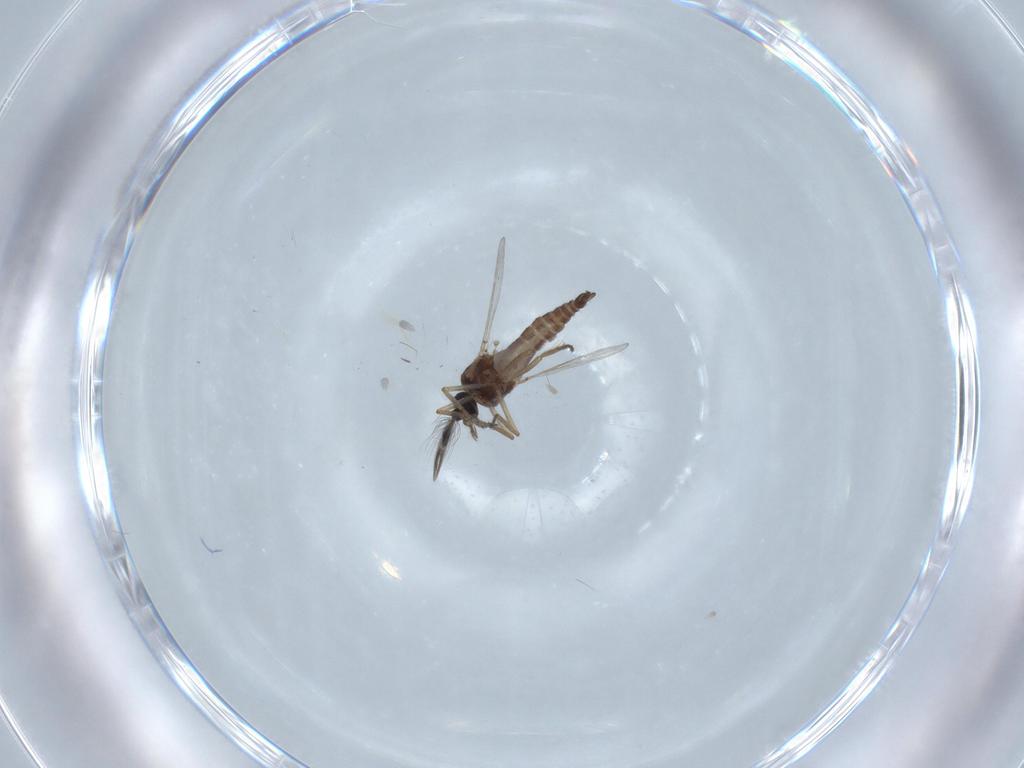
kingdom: Animalia
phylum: Arthropoda
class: Insecta
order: Diptera
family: Ceratopogonidae
